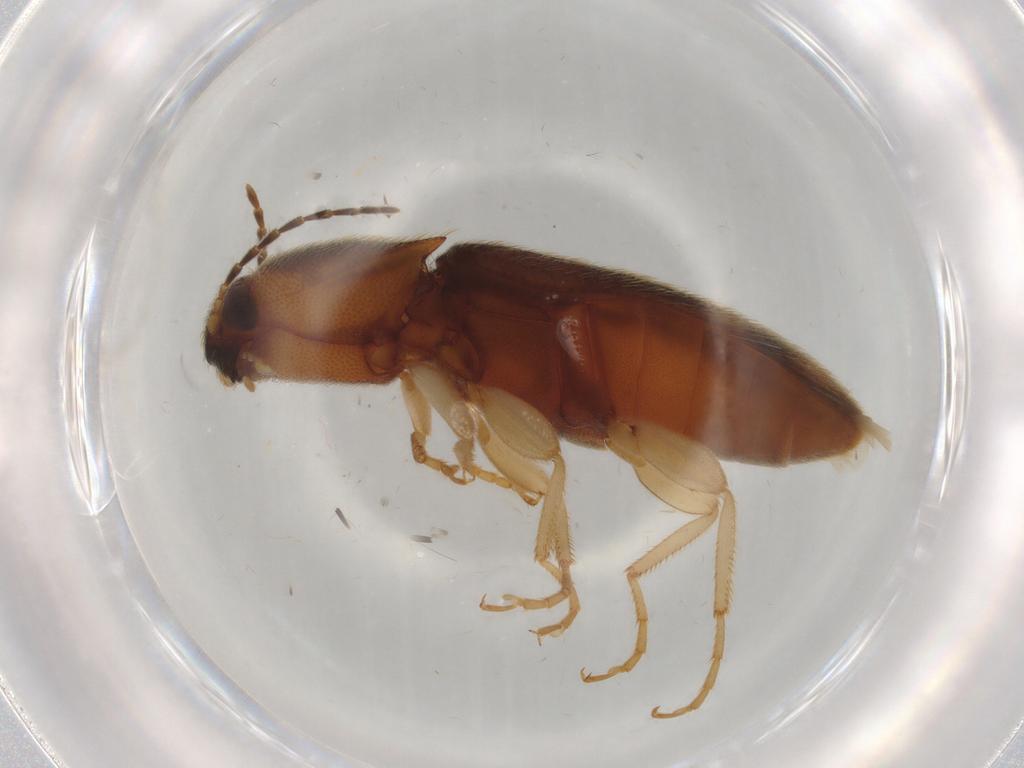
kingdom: Animalia
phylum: Arthropoda
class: Insecta
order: Coleoptera
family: Elateridae
